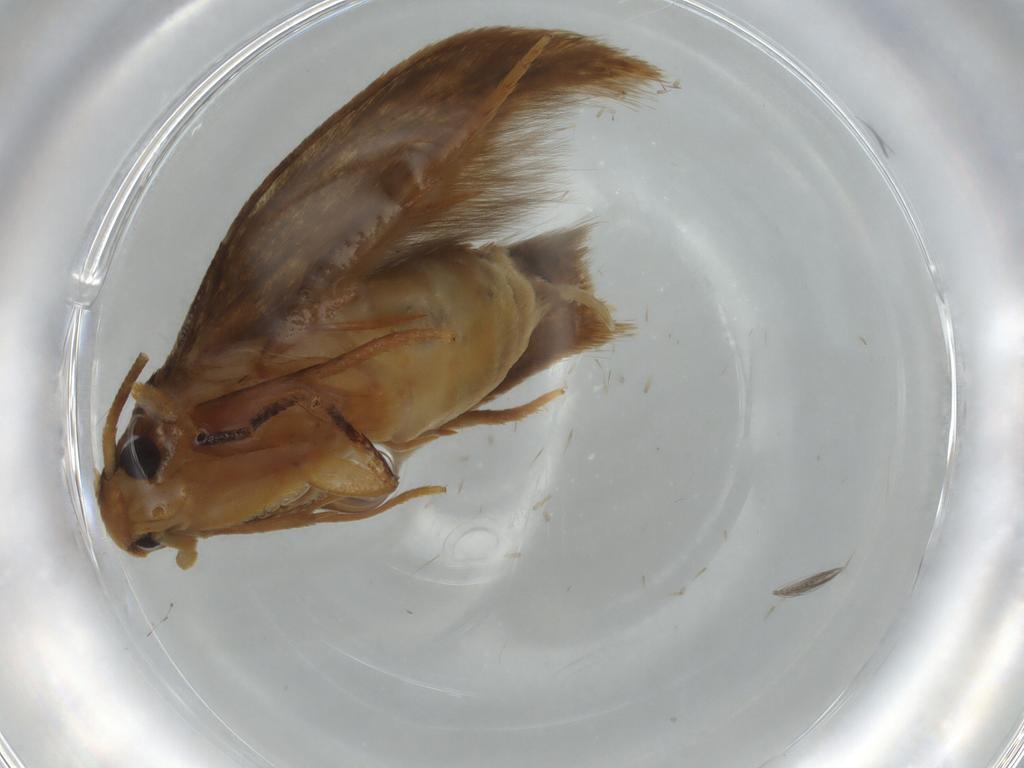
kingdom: Animalia
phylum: Arthropoda
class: Insecta
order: Lepidoptera
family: Tineidae
